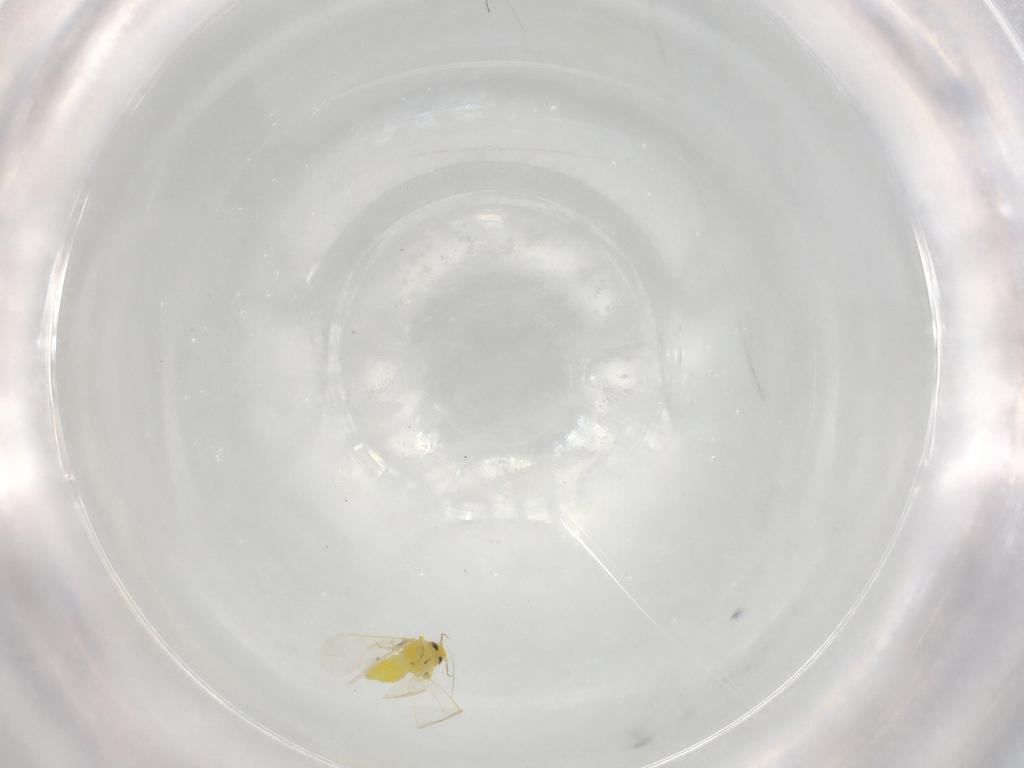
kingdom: Animalia
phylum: Arthropoda
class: Insecta
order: Hemiptera
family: Aleyrodidae
